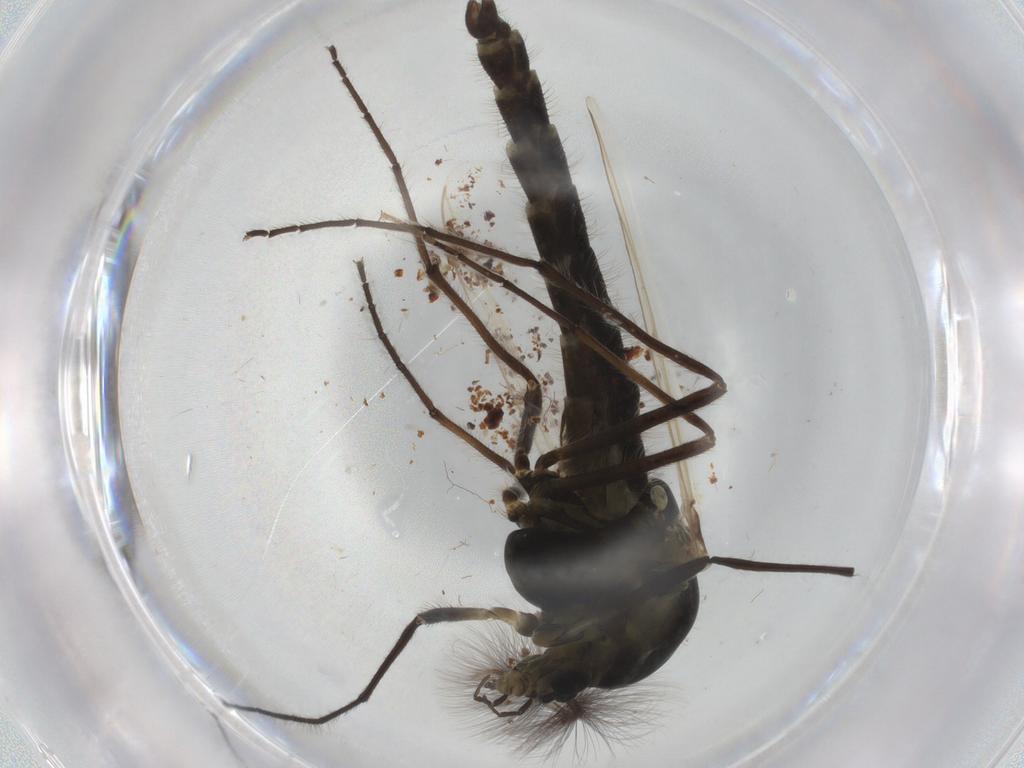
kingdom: Animalia
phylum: Arthropoda
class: Insecta
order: Diptera
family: Chironomidae
